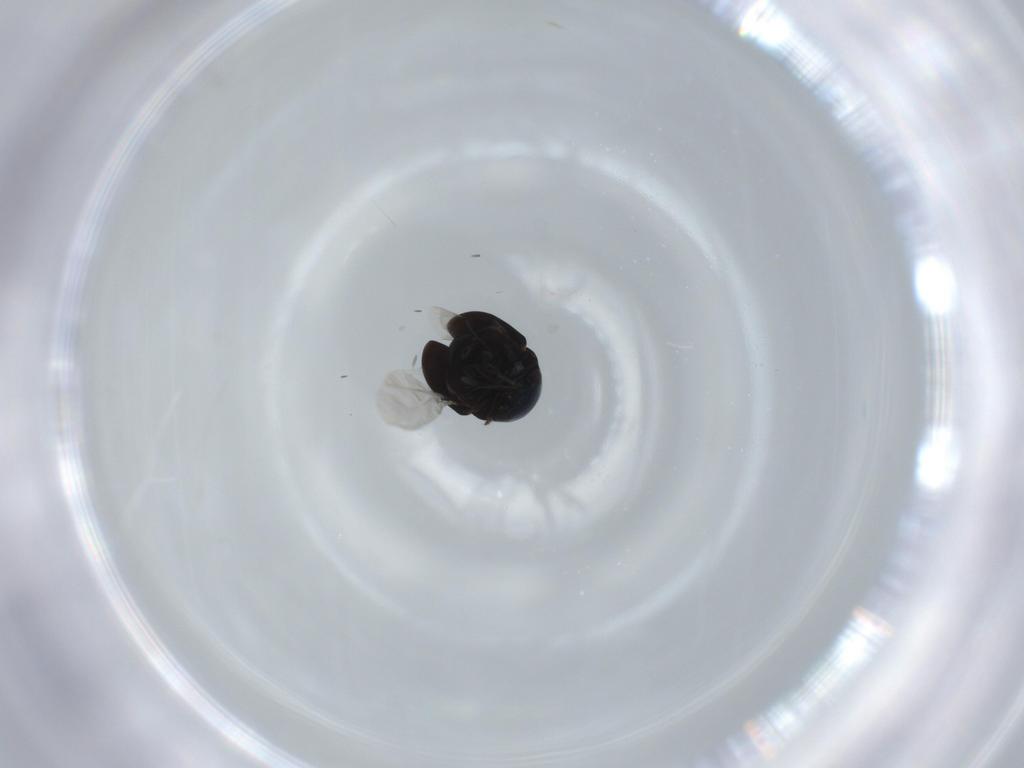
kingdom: Animalia
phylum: Arthropoda
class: Insecta
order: Coleoptera
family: Cybocephalidae
